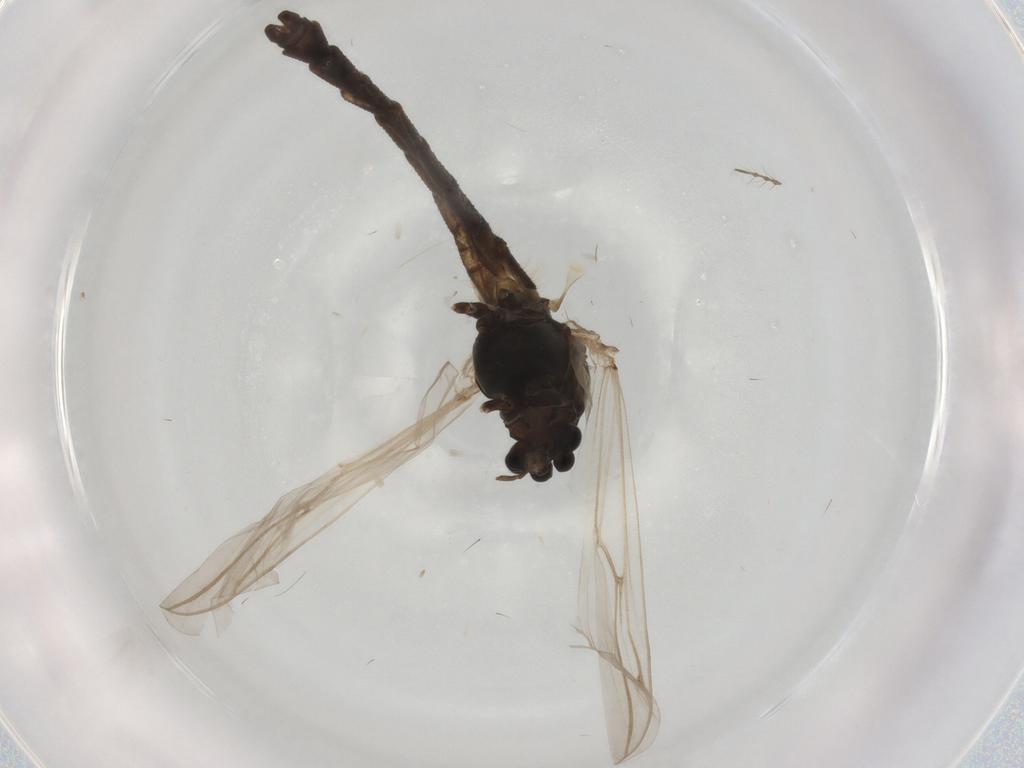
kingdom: Animalia
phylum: Arthropoda
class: Insecta
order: Diptera
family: Chironomidae
